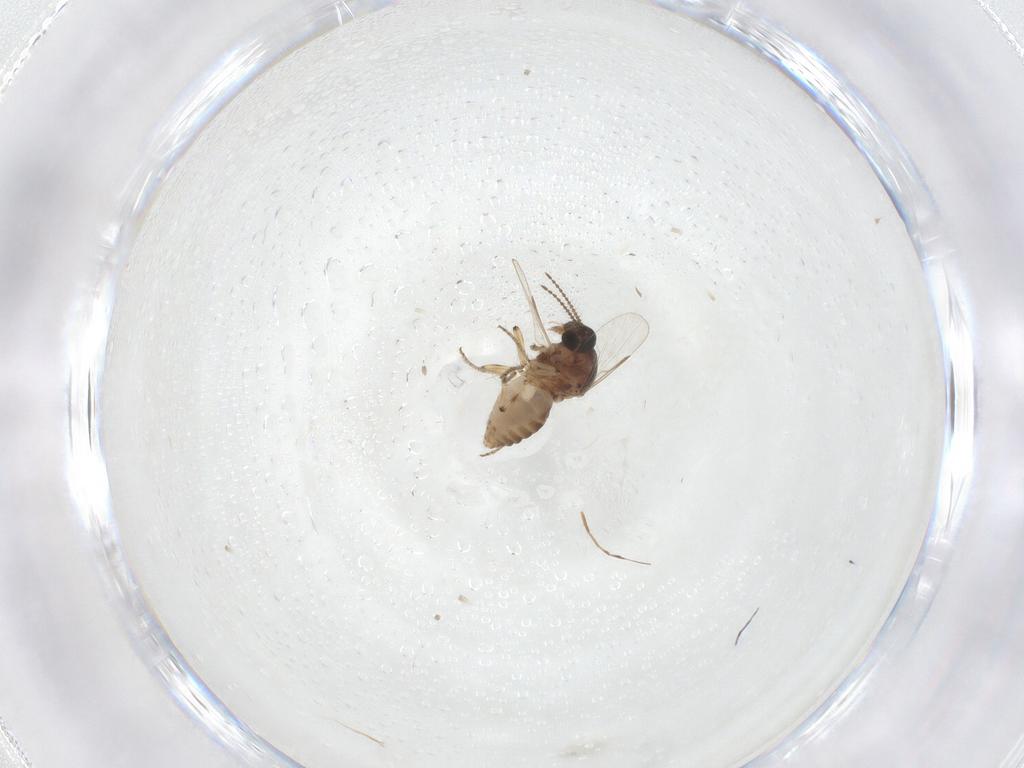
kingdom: Animalia
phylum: Arthropoda
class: Insecta
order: Diptera
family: Ceratopogonidae
